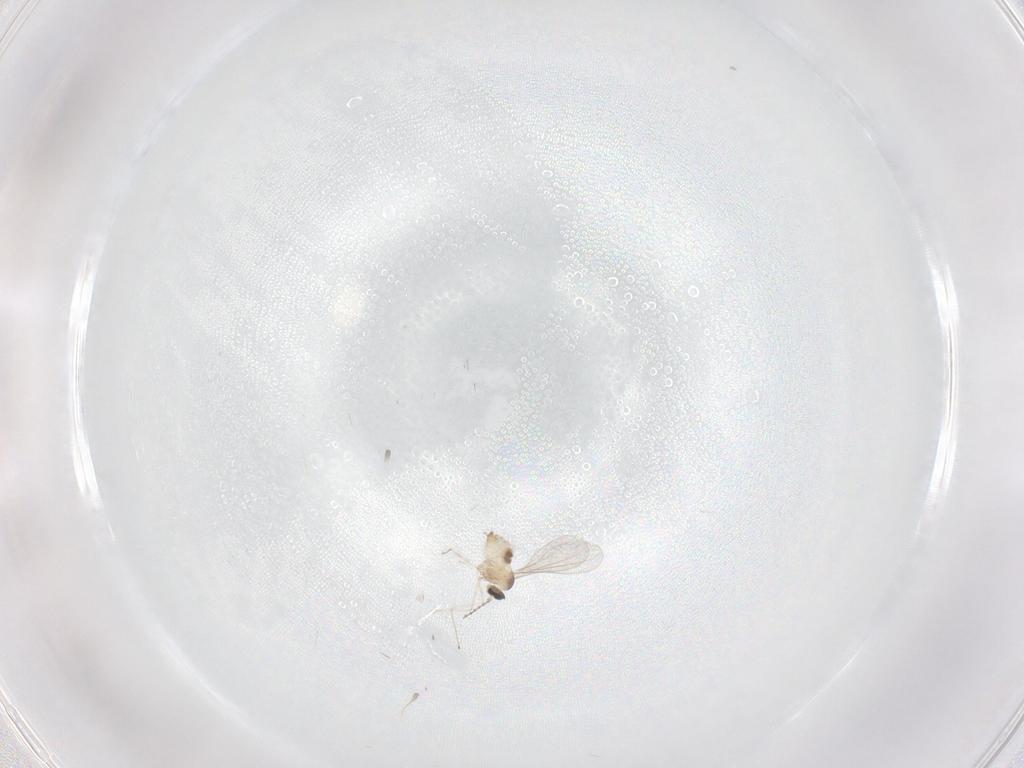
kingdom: Animalia
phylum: Arthropoda
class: Insecta
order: Diptera
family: Cecidomyiidae
